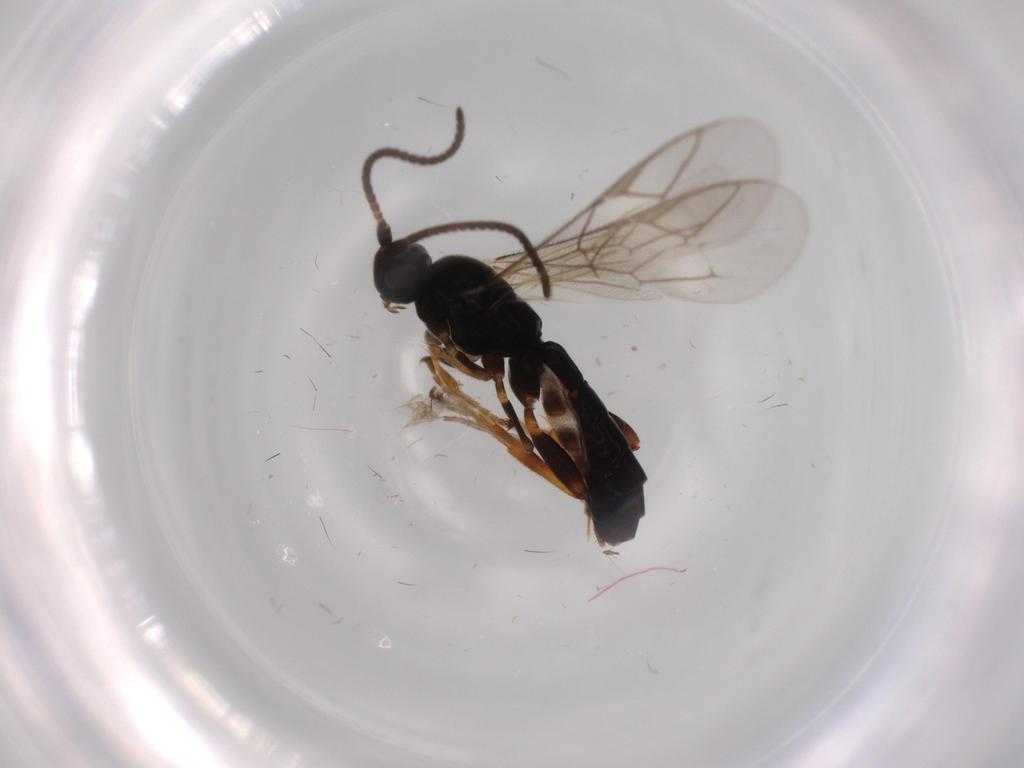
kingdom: Animalia
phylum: Arthropoda
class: Insecta
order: Hymenoptera
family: Ichneumonidae
